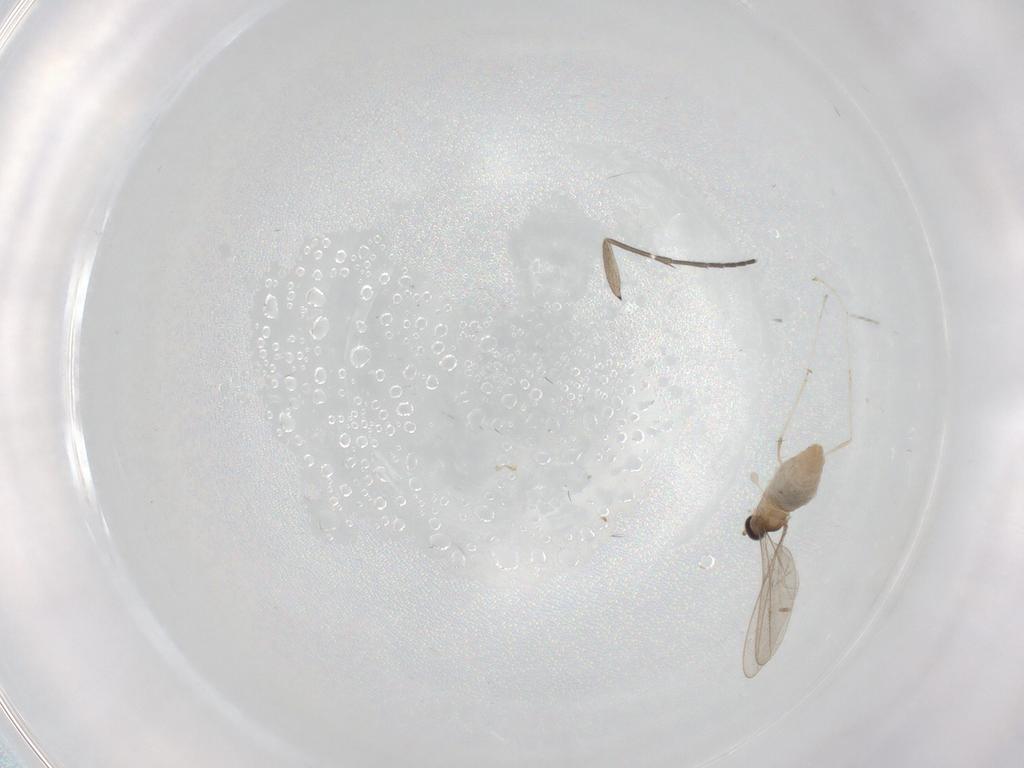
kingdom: Animalia
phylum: Arthropoda
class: Insecta
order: Diptera
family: Cecidomyiidae
